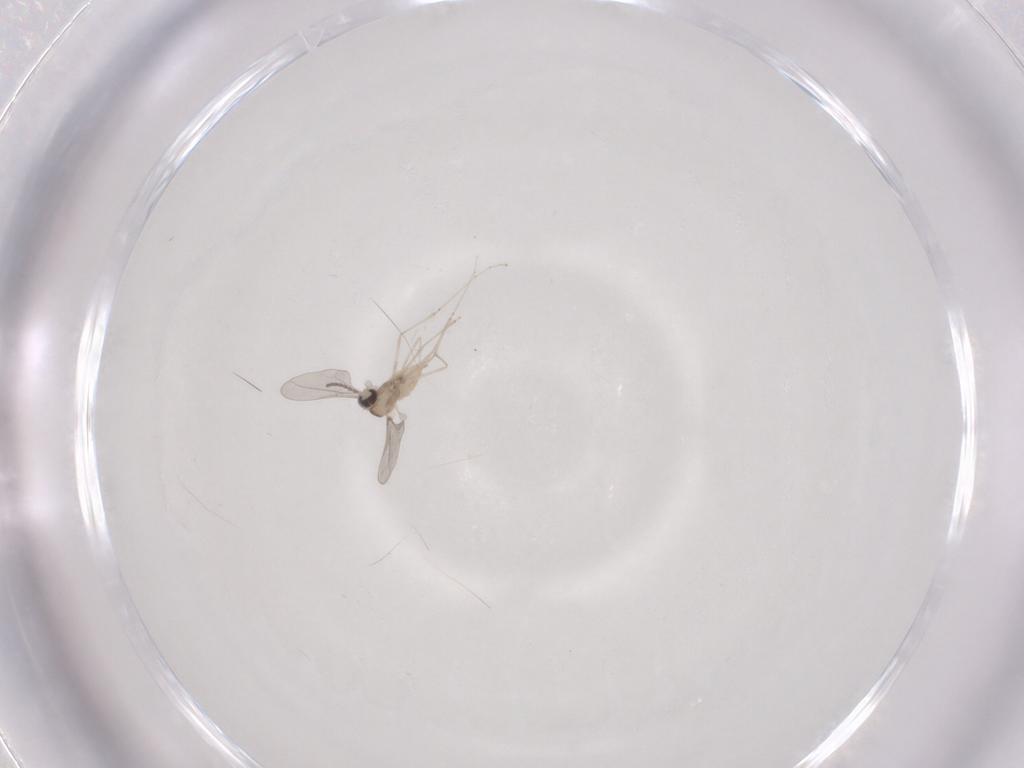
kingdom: Animalia
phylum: Arthropoda
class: Insecta
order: Diptera
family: Cecidomyiidae
